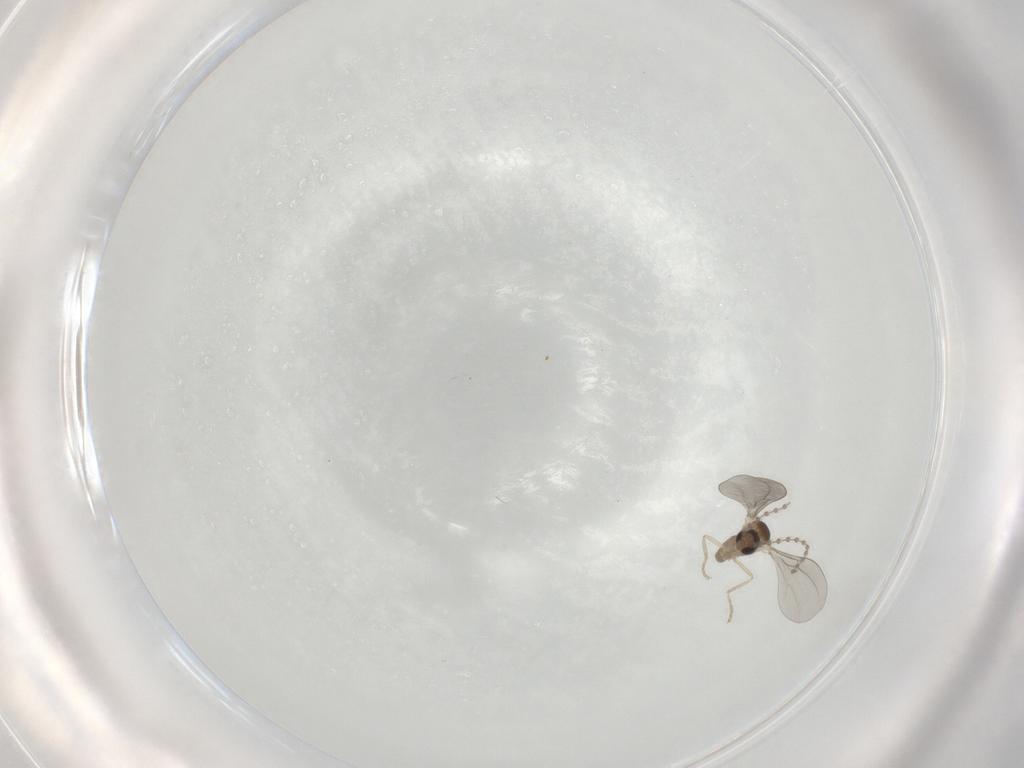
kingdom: Animalia
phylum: Arthropoda
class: Insecta
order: Diptera
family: Cecidomyiidae
